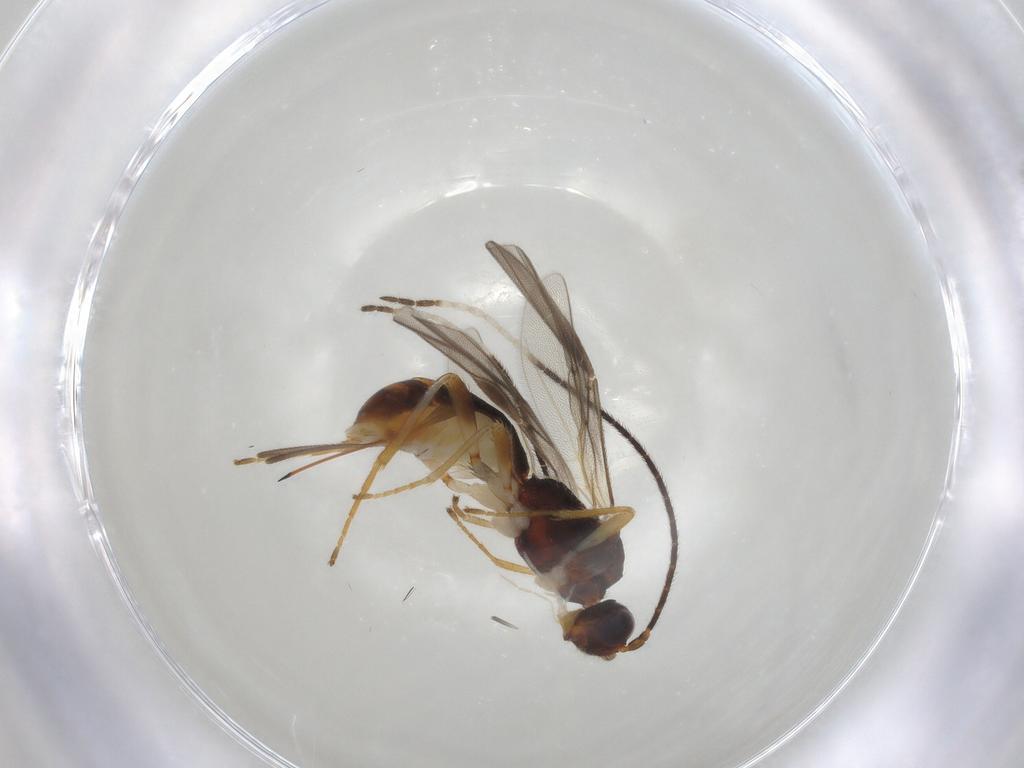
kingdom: Animalia
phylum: Arthropoda
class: Insecta
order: Hymenoptera
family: Braconidae
